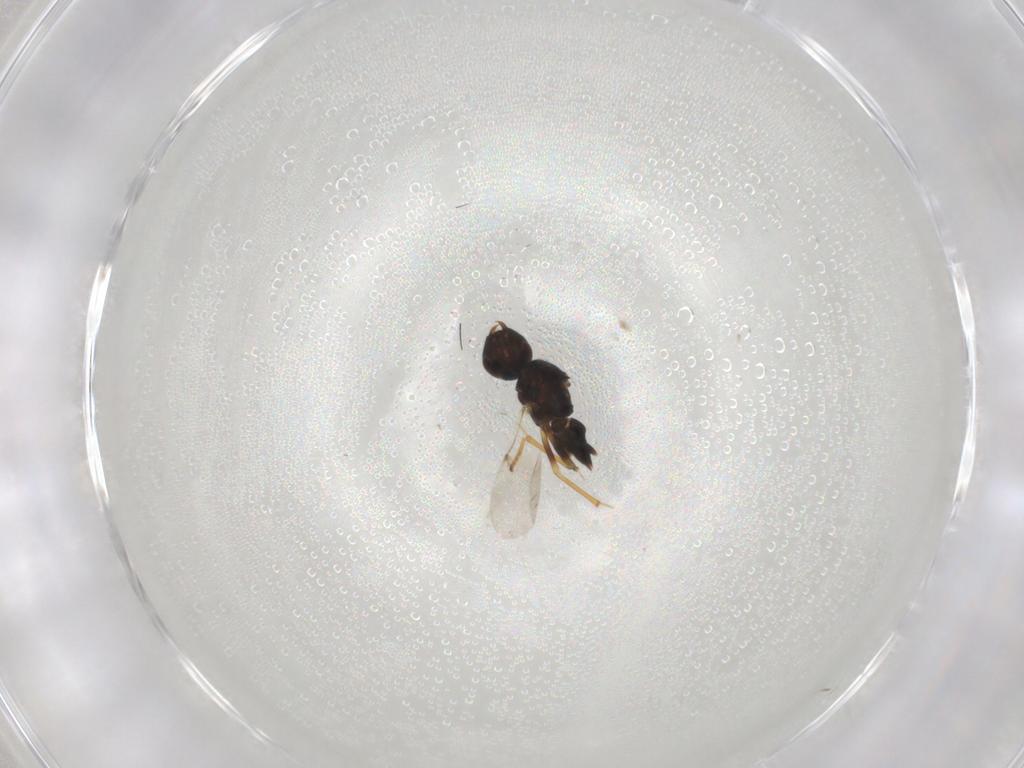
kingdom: Animalia
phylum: Arthropoda
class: Insecta
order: Hymenoptera
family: Encyrtidae
